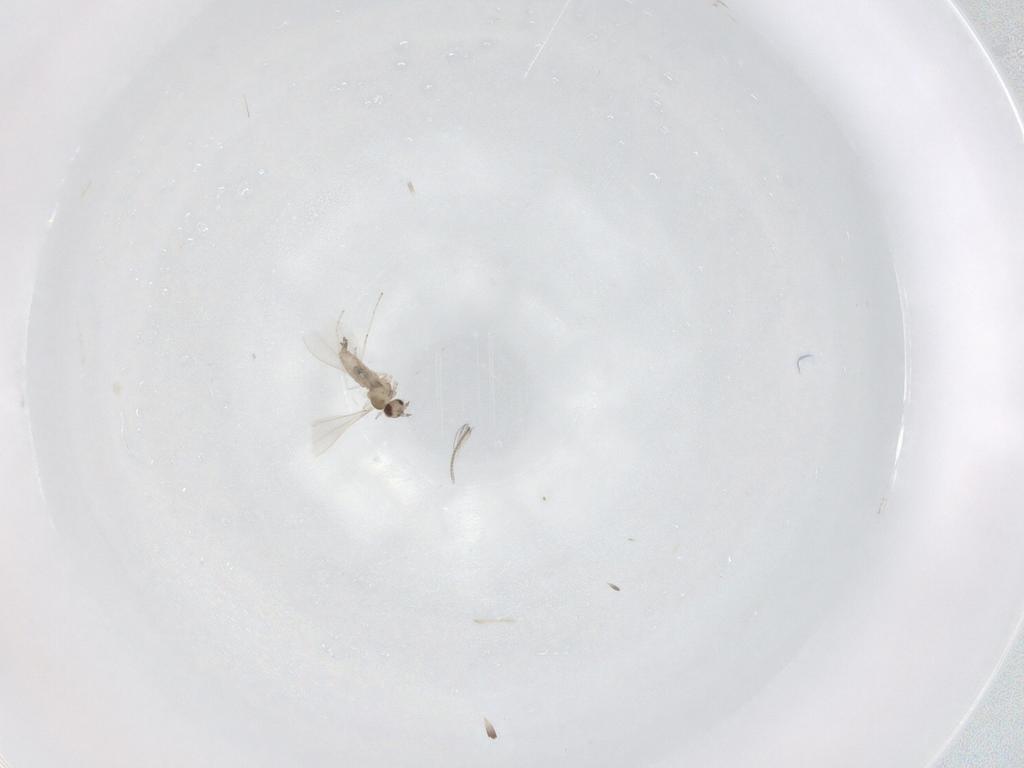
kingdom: Animalia
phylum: Arthropoda
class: Insecta
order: Diptera
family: Cecidomyiidae
